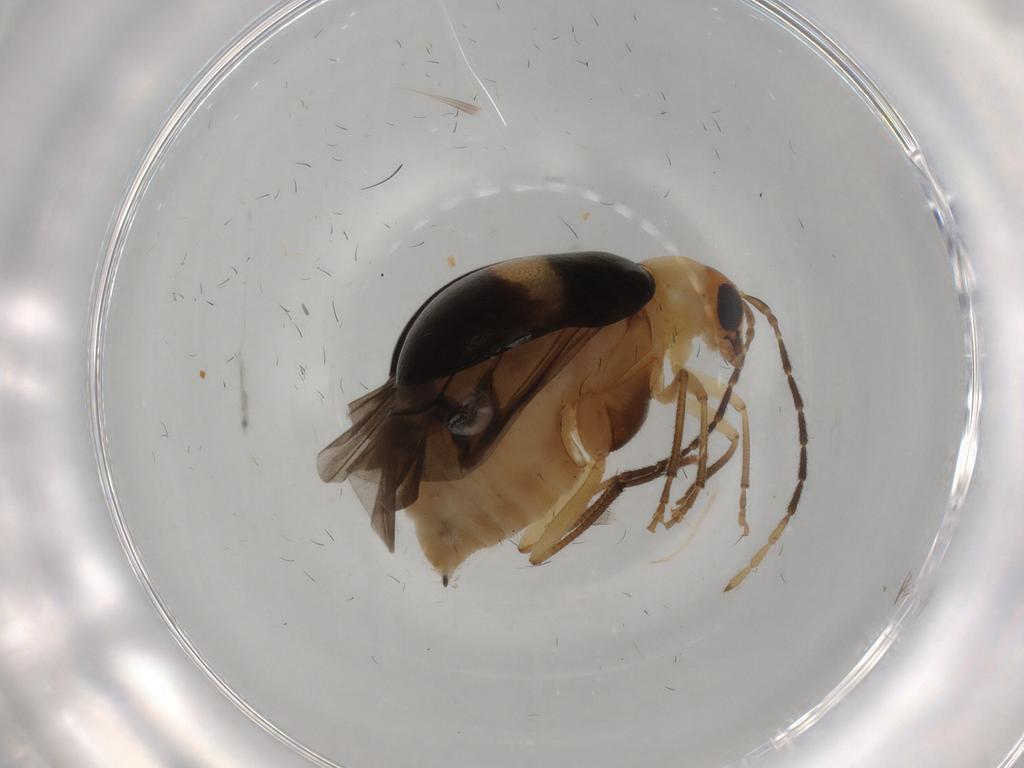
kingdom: Animalia
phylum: Arthropoda
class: Insecta
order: Coleoptera
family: Chrysomelidae
